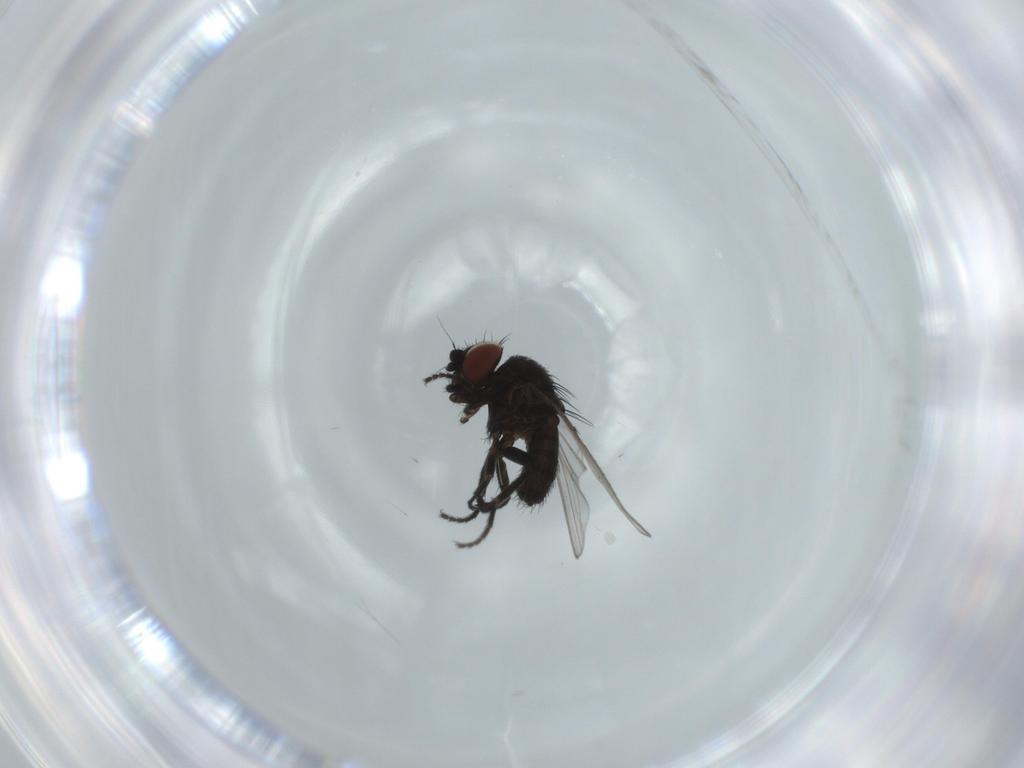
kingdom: Animalia
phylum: Arthropoda
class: Insecta
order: Diptera
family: Milichiidae
